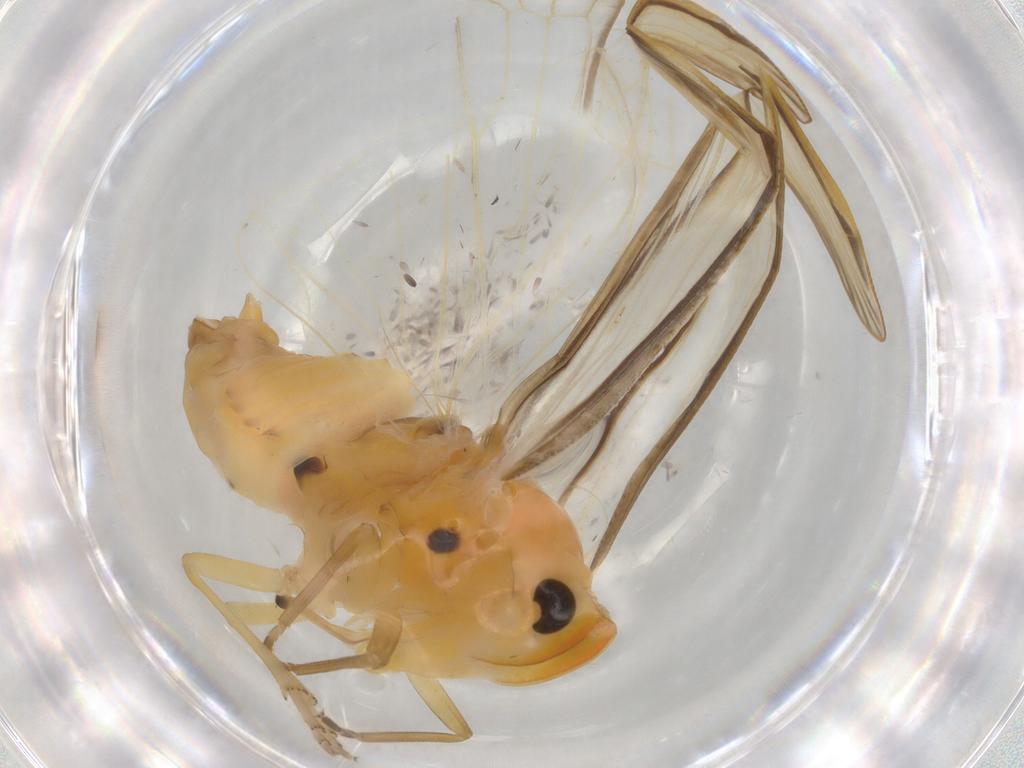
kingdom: Animalia
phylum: Arthropoda
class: Insecta
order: Hemiptera
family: Derbidae
